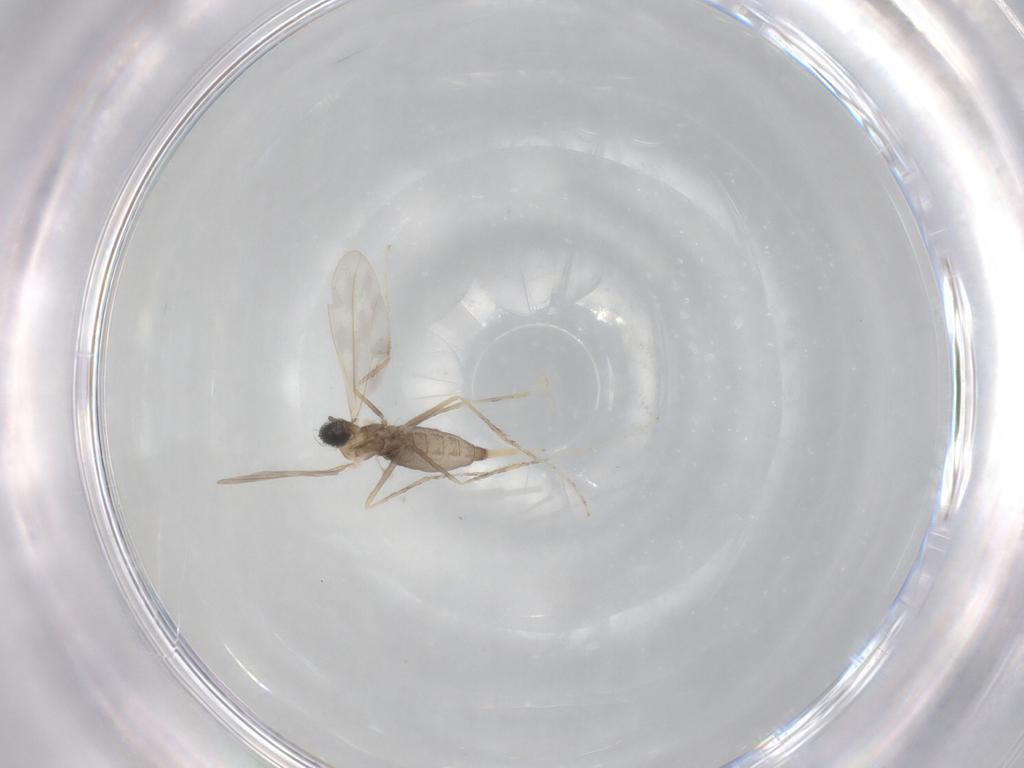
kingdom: Animalia
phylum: Arthropoda
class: Insecta
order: Diptera
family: Cecidomyiidae
